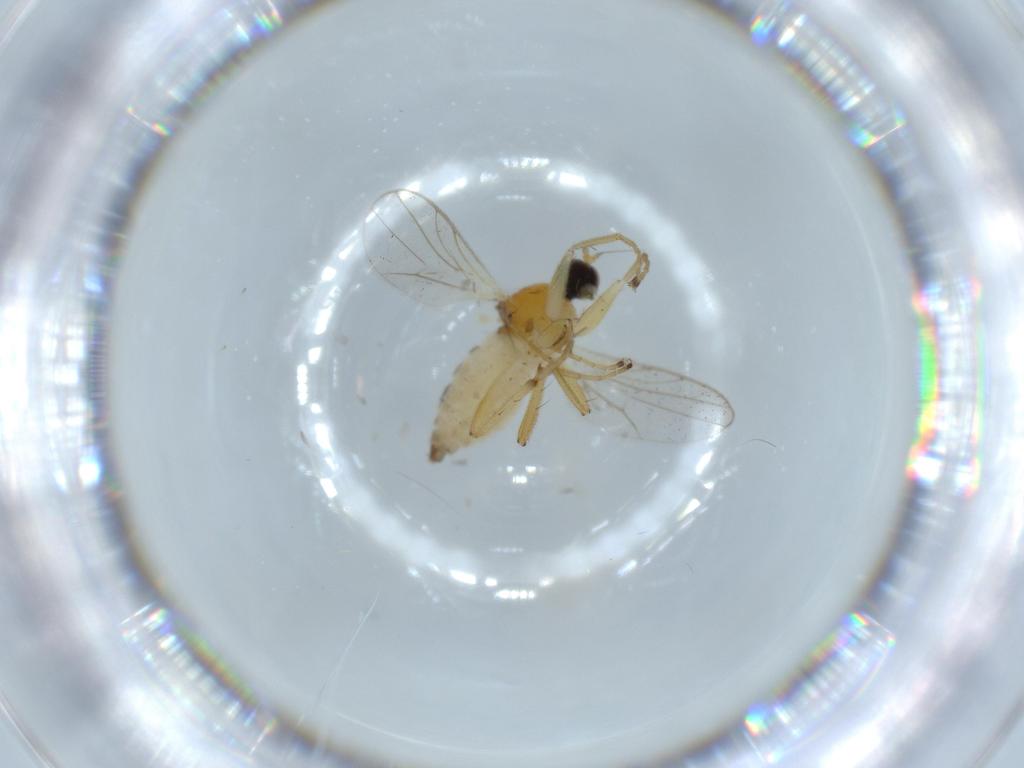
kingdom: Animalia
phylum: Arthropoda
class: Insecta
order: Diptera
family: Hybotidae
